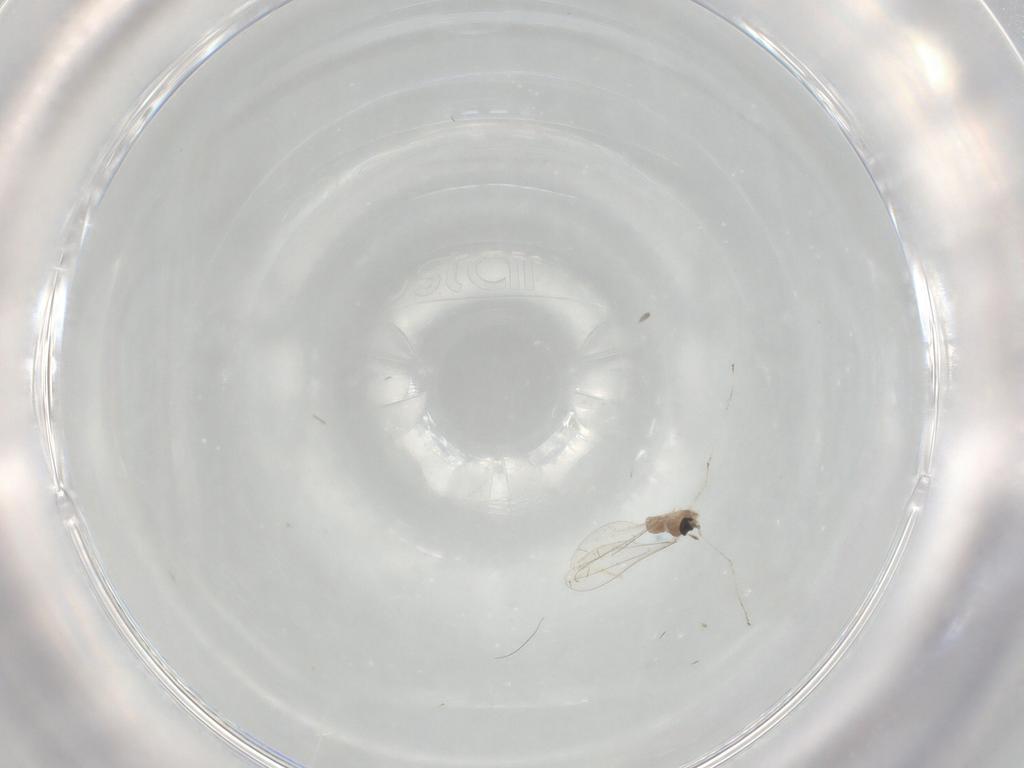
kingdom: Animalia
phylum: Arthropoda
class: Insecta
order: Diptera
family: Cecidomyiidae
